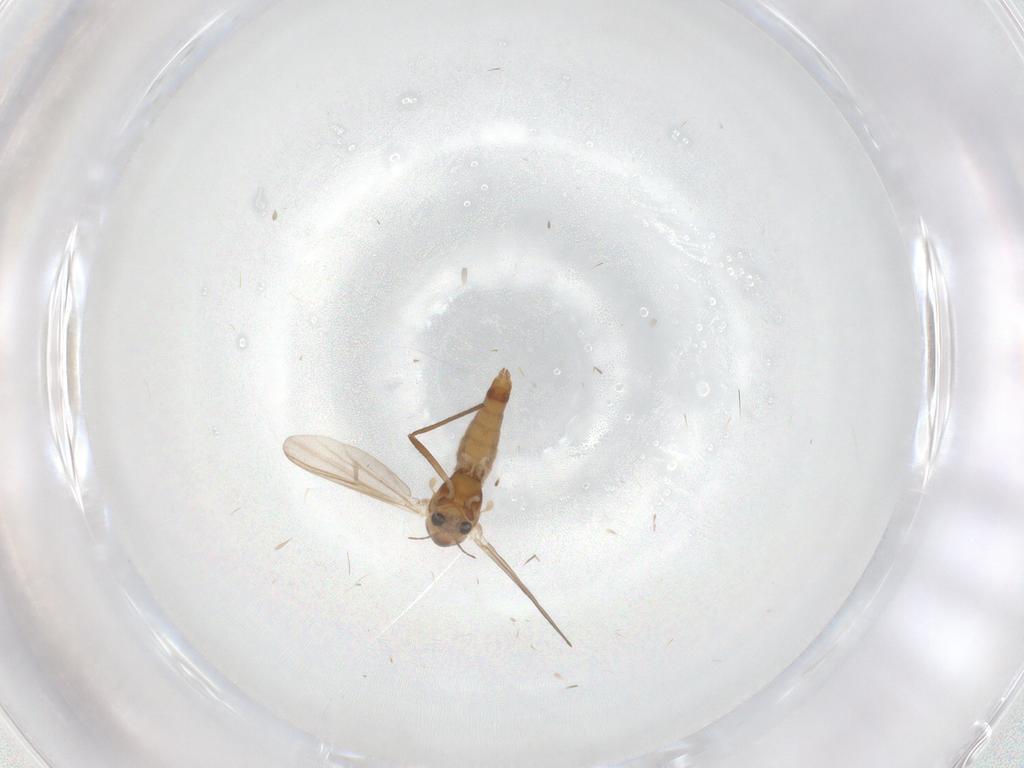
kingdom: Animalia
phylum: Arthropoda
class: Insecta
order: Diptera
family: Chironomidae
